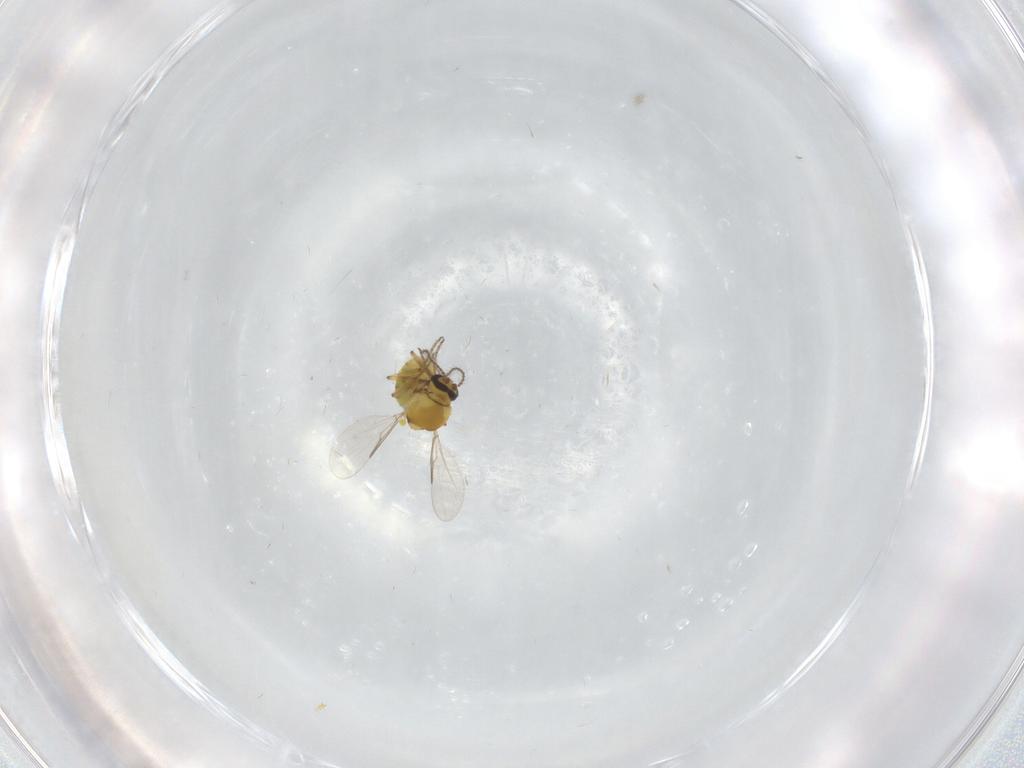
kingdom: Animalia
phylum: Arthropoda
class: Insecta
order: Diptera
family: Ceratopogonidae
